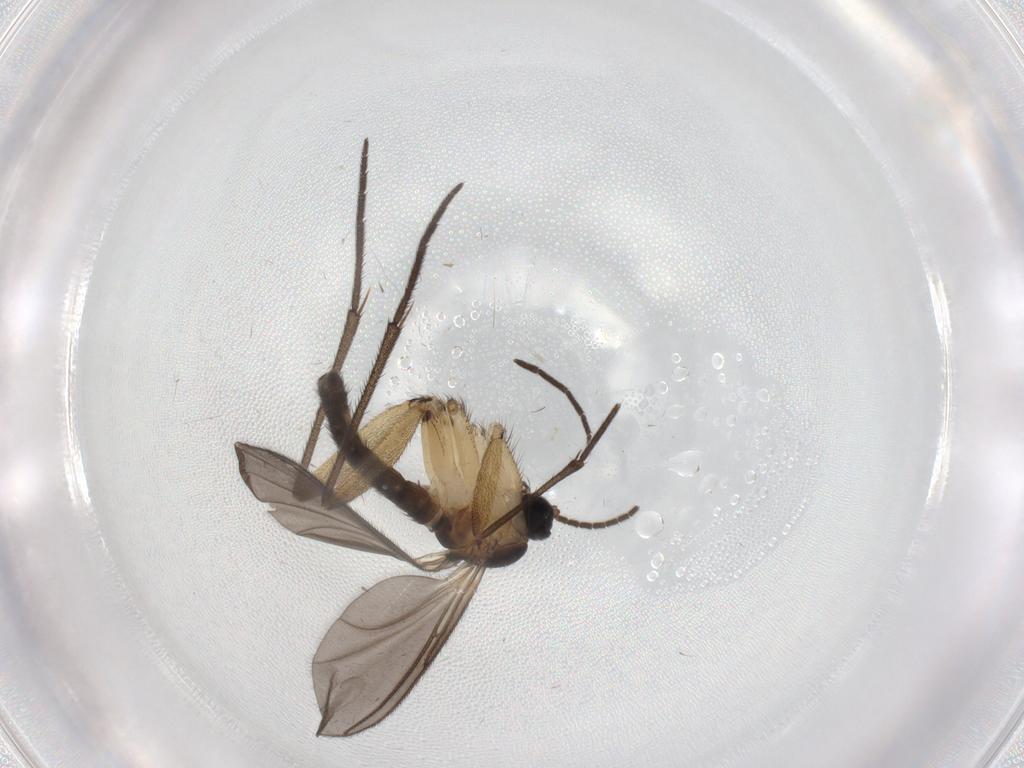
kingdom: Animalia
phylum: Arthropoda
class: Insecta
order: Diptera
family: Sciaridae
